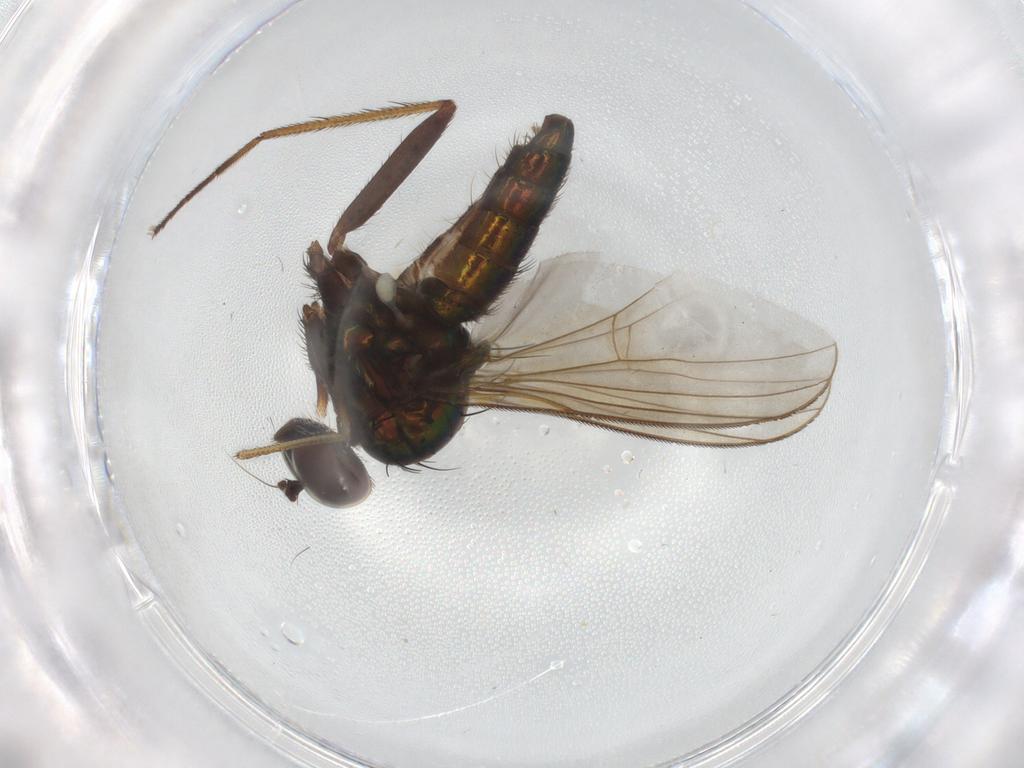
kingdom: Animalia
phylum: Arthropoda
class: Insecta
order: Diptera
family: Dolichopodidae
